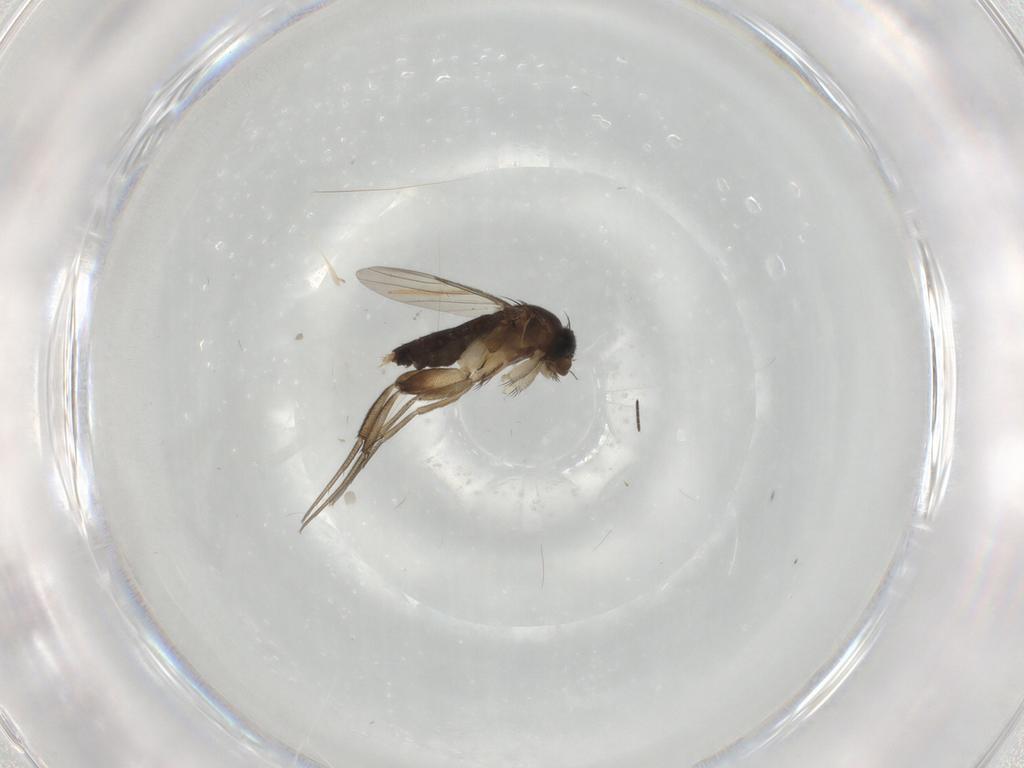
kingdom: Animalia
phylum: Arthropoda
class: Insecta
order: Diptera
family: Phoridae
